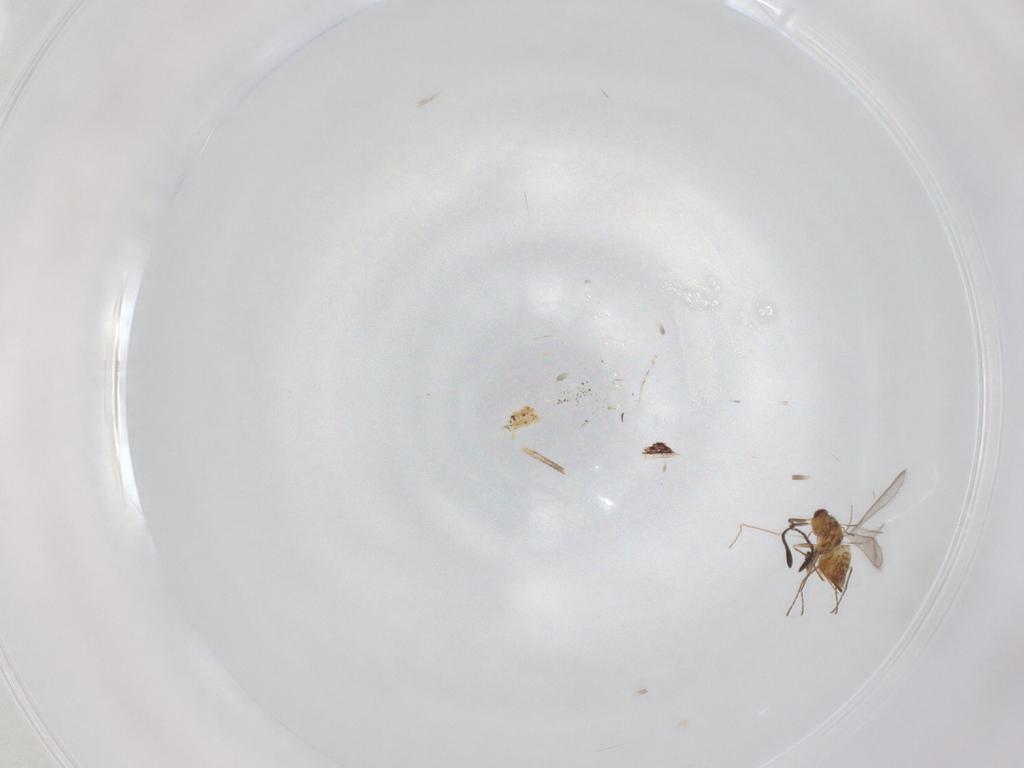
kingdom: Animalia
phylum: Arthropoda
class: Insecta
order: Hymenoptera
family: Mymaridae
